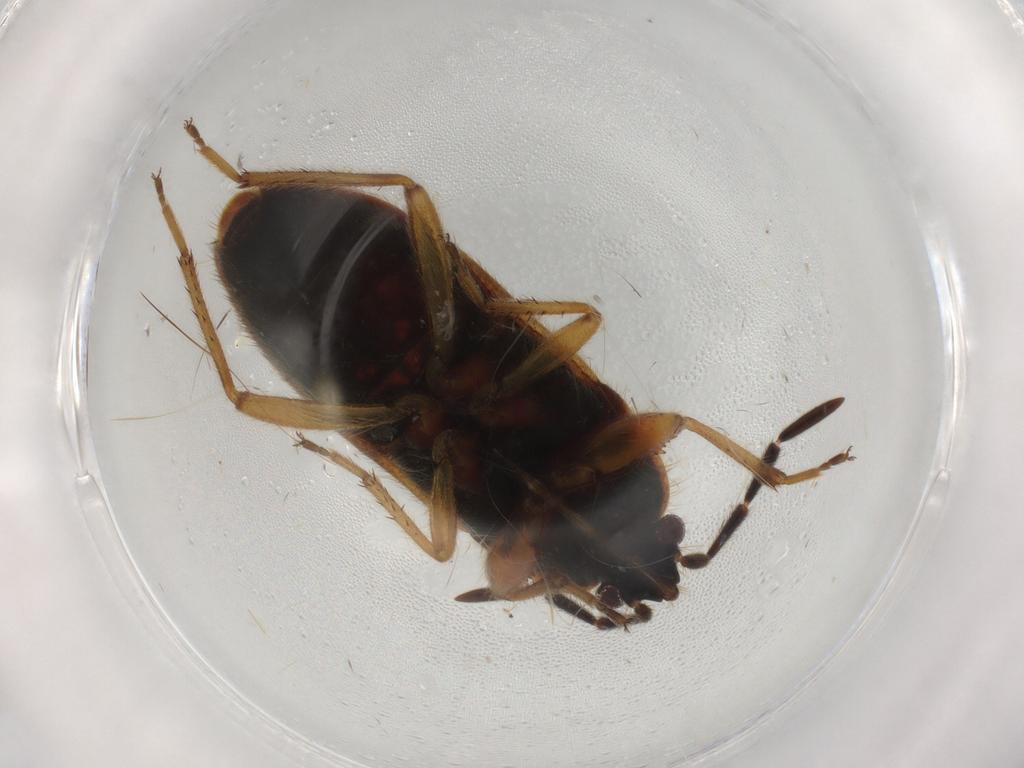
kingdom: Animalia
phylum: Arthropoda
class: Insecta
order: Hemiptera
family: Rhyparochromidae
